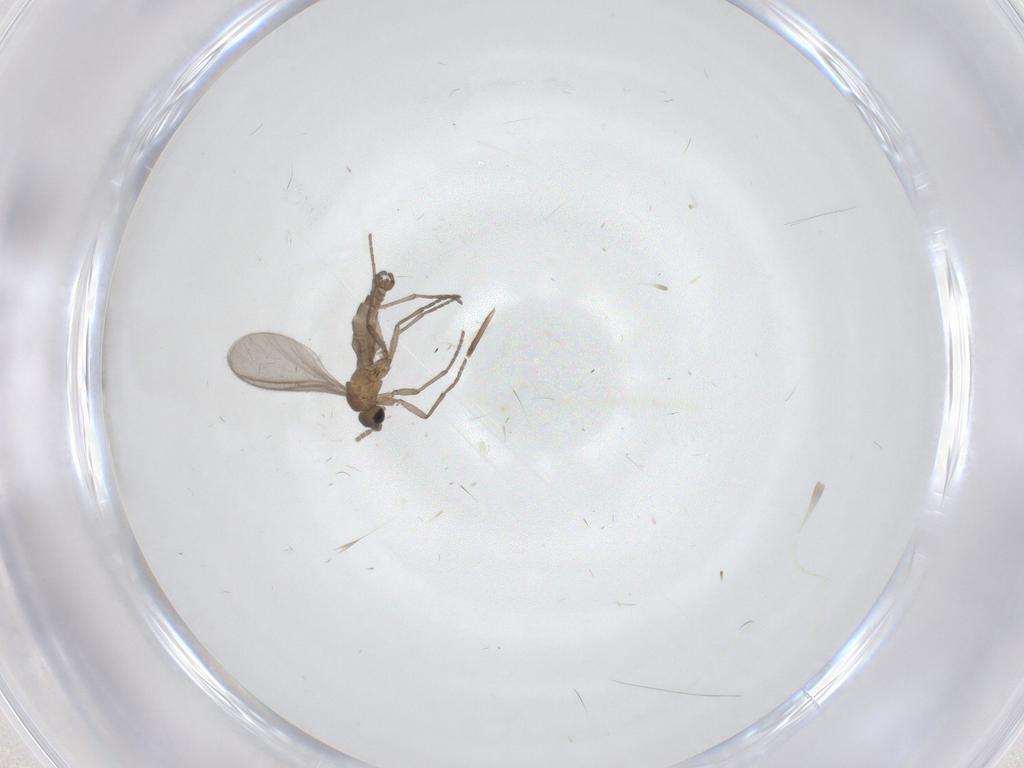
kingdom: Animalia
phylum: Arthropoda
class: Insecta
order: Diptera
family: Sciaridae
